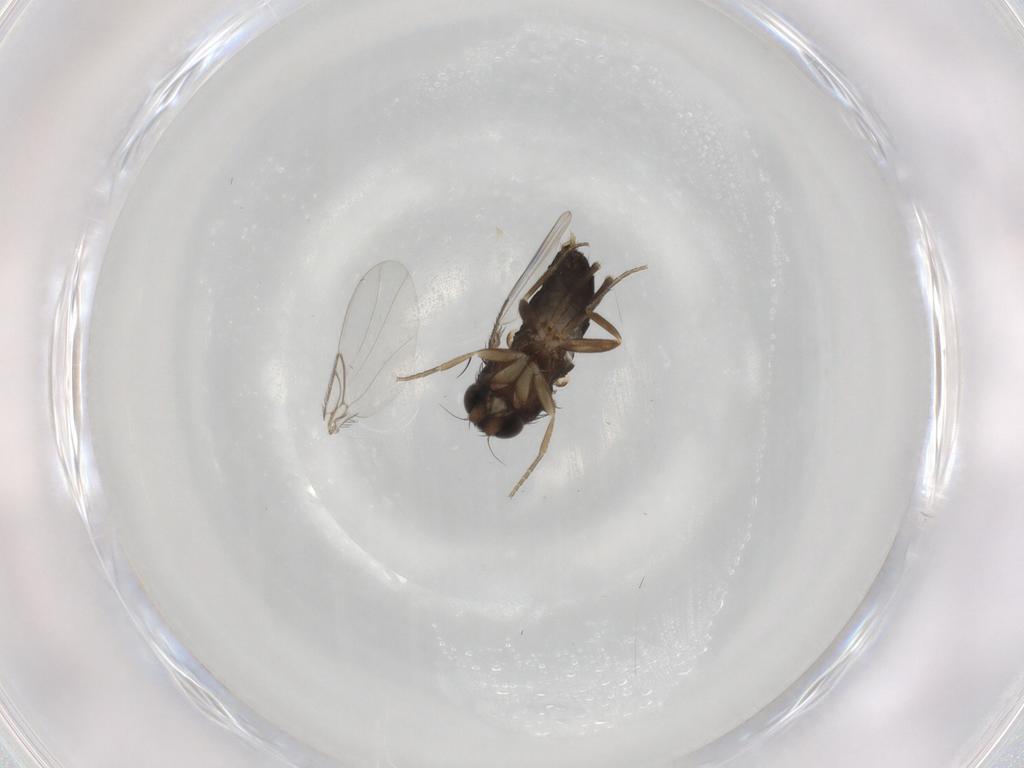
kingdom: Animalia
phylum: Arthropoda
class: Insecta
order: Diptera
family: Phoridae
